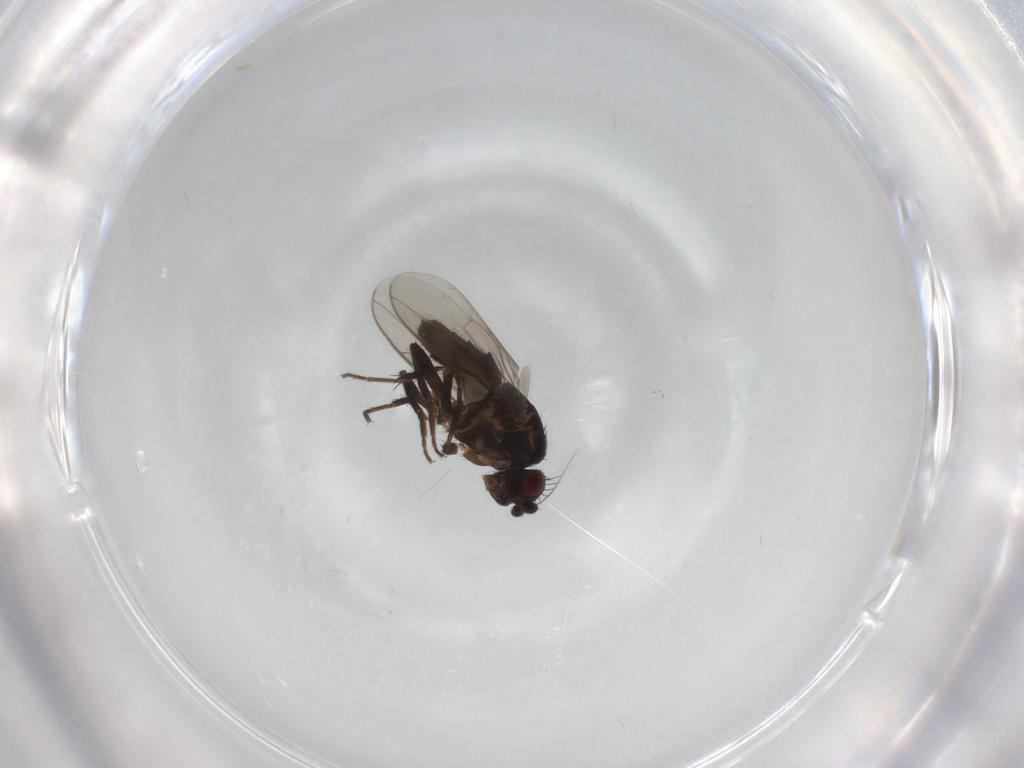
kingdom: Animalia
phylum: Arthropoda
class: Insecta
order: Diptera
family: Sphaeroceridae
